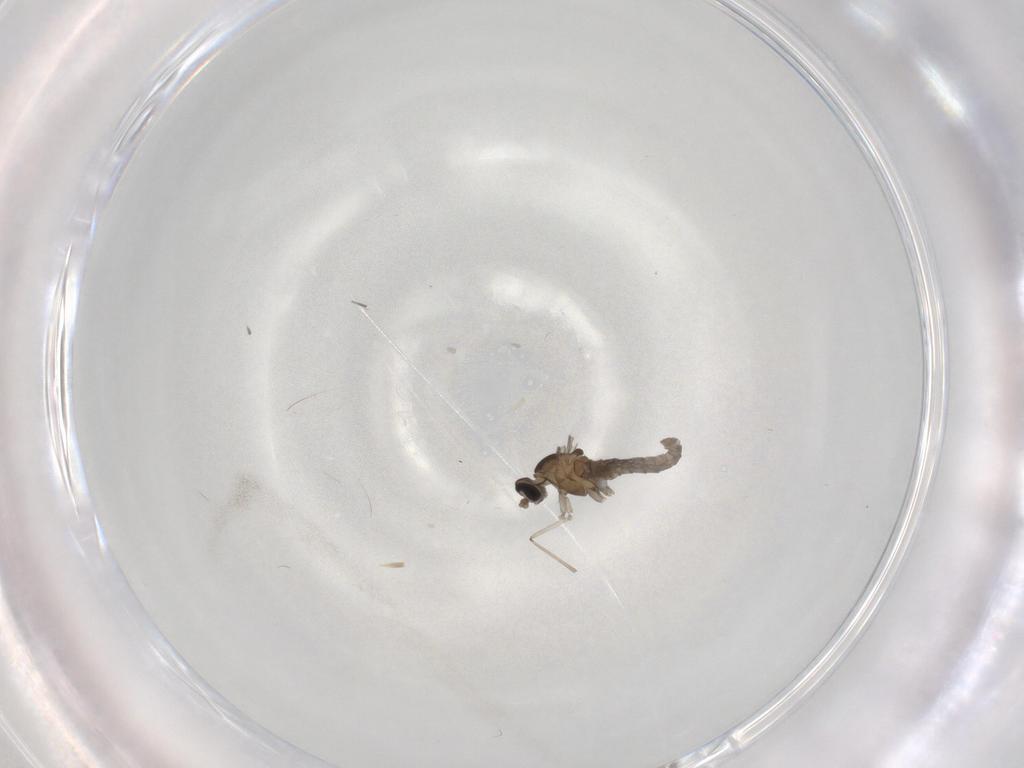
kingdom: Animalia
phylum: Arthropoda
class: Insecta
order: Diptera
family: Cecidomyiidae
